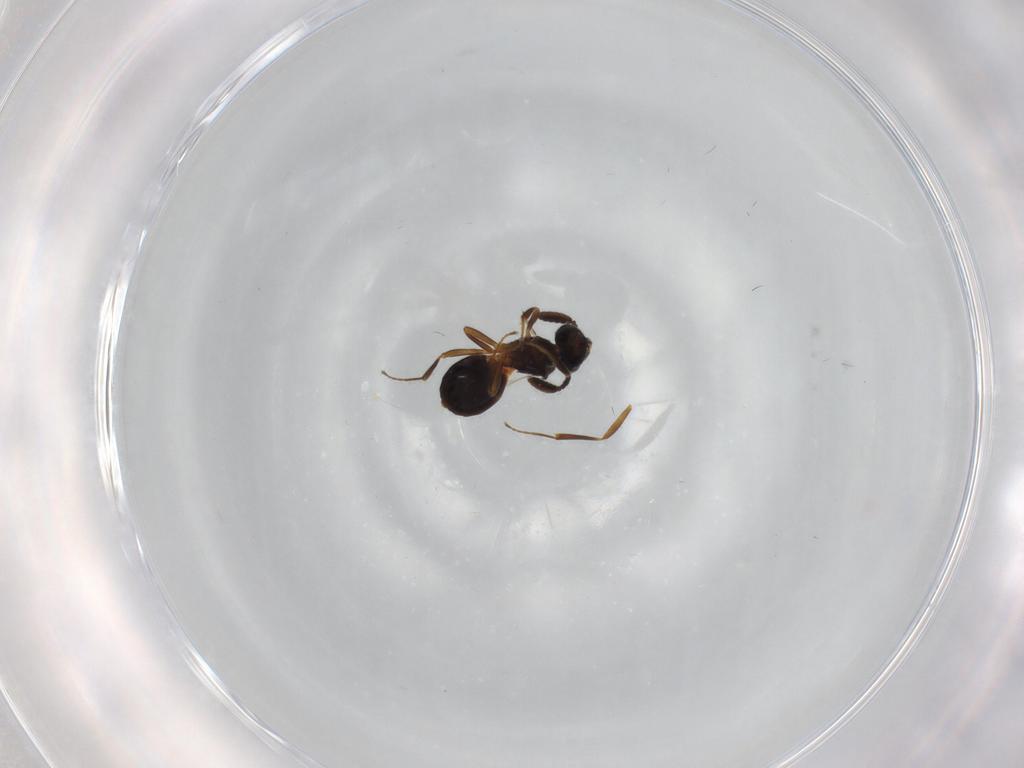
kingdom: Animalia
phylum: Arthropoda
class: Insecta
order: Hymenoptera
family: Scelionidae
